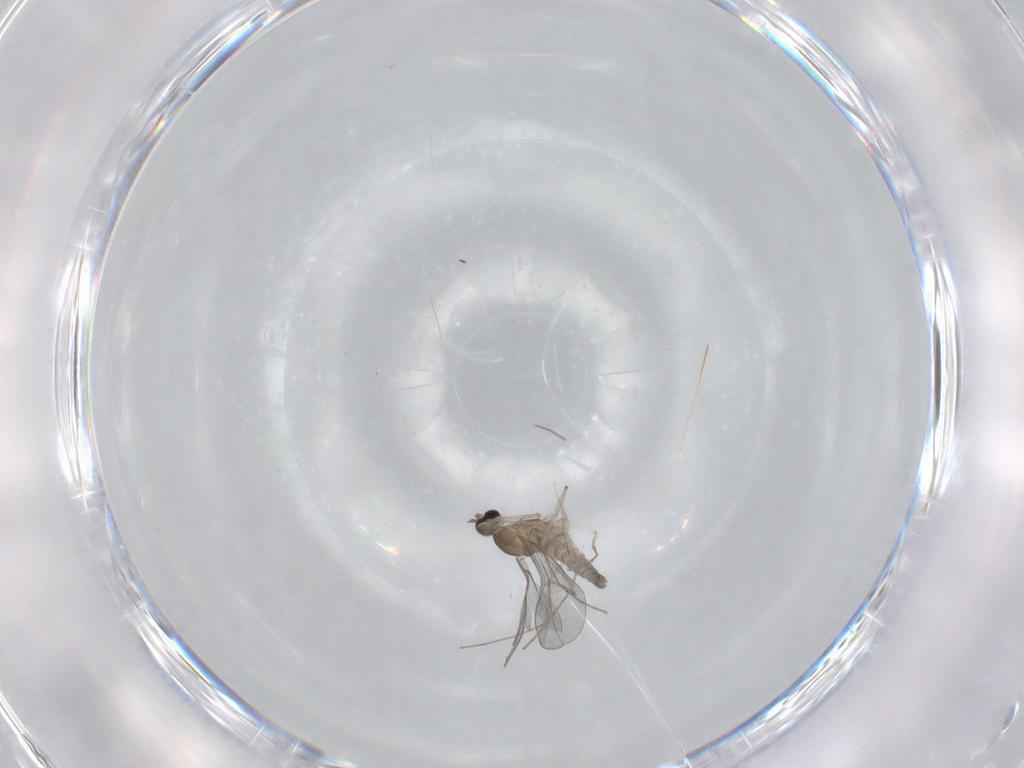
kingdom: Animalia
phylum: Arthropoda
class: Insecta
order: Diptera
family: Cecidomyiidae
